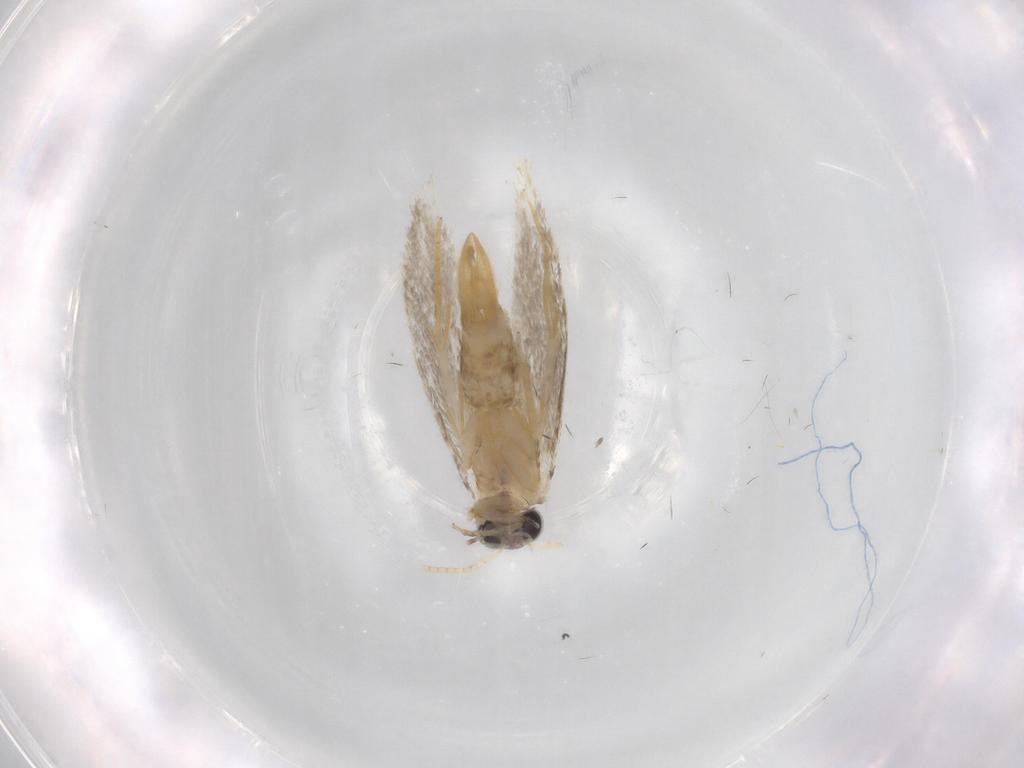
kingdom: Animalia
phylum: Arthropoda
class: Insecta
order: Lepidoptera
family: Nepticulidae
